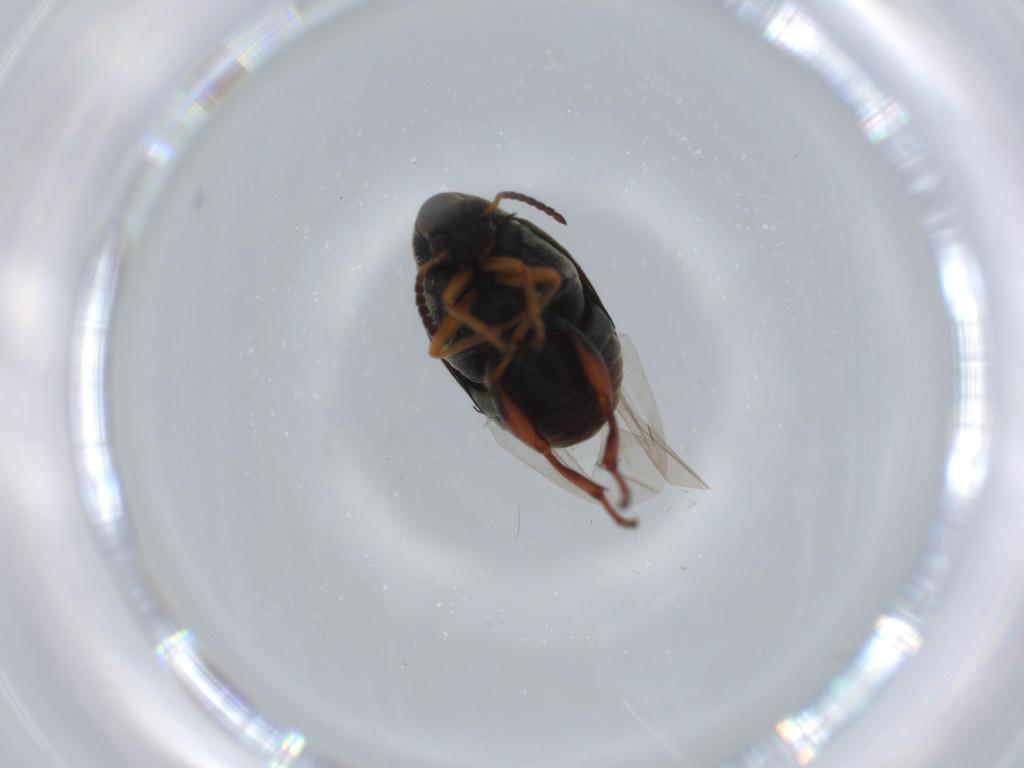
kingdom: Animalia
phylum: Arthropoda
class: Insecta
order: Coleoptera
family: Chrysomelidae
